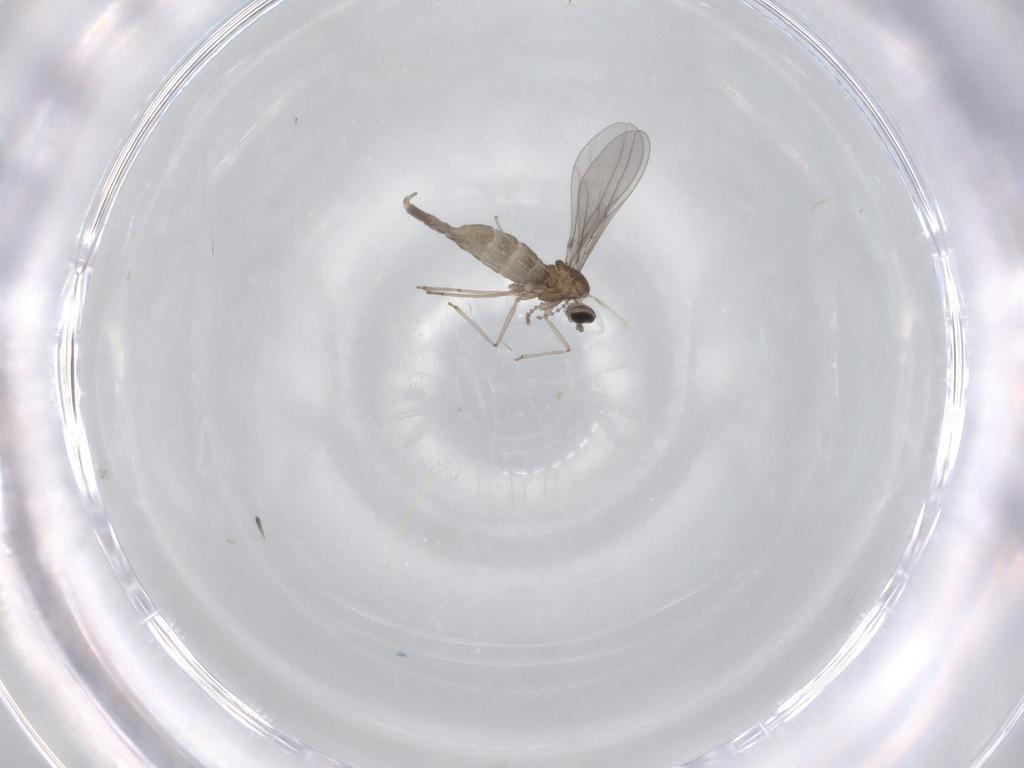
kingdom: Animalia
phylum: Arthropoda
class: Insecta
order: Diptera
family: Cecidomyiidae
